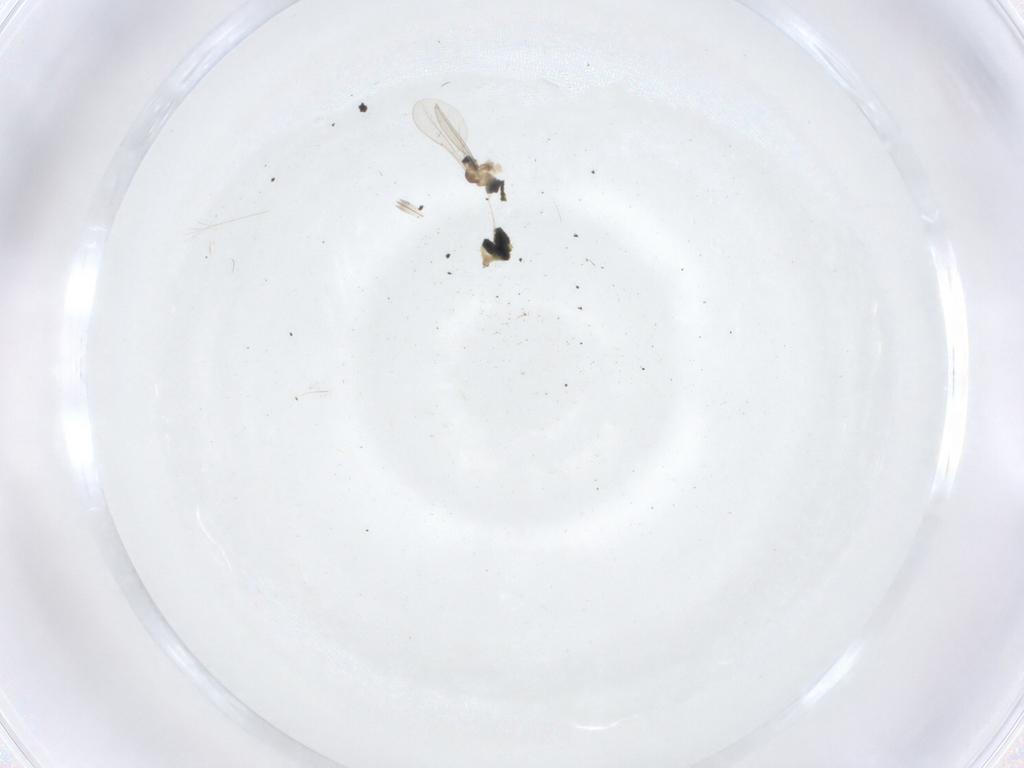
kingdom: Animalia
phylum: Arthropoda
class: Insecta
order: Diptera
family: Cecidomyiidae
